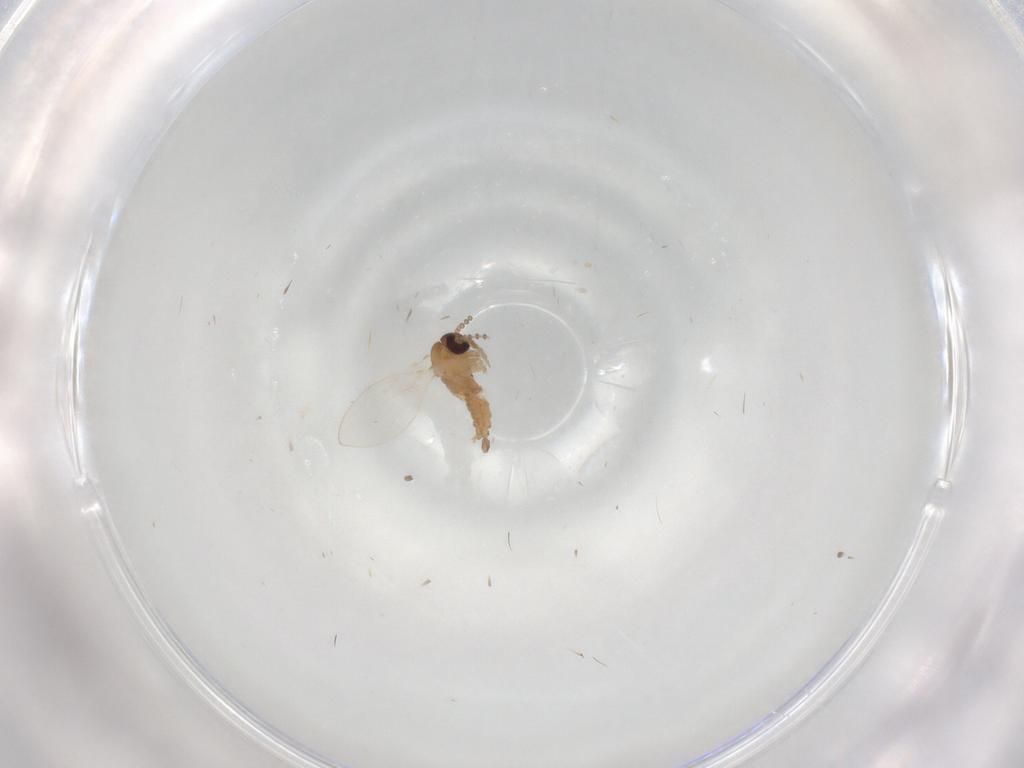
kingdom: Animalia
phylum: Arthropoda
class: Insecta
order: Diptera
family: Psychodidae
